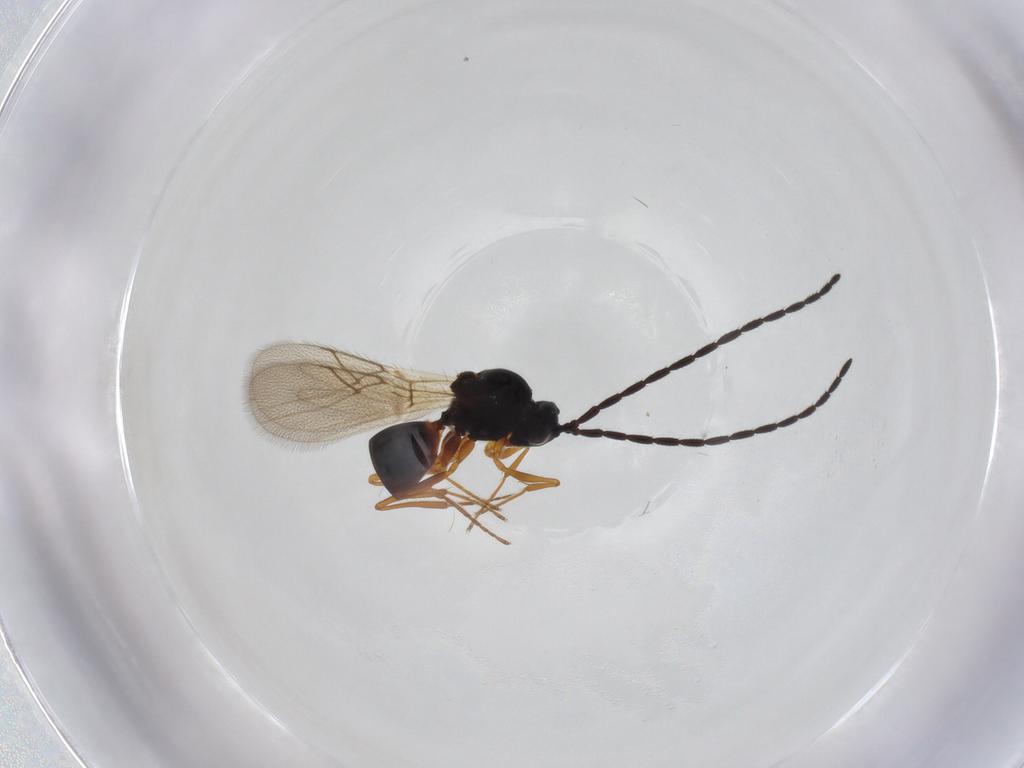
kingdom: Animalia
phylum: Arthropoda
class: Insecta
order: Hymenoptera
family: Figitidae
